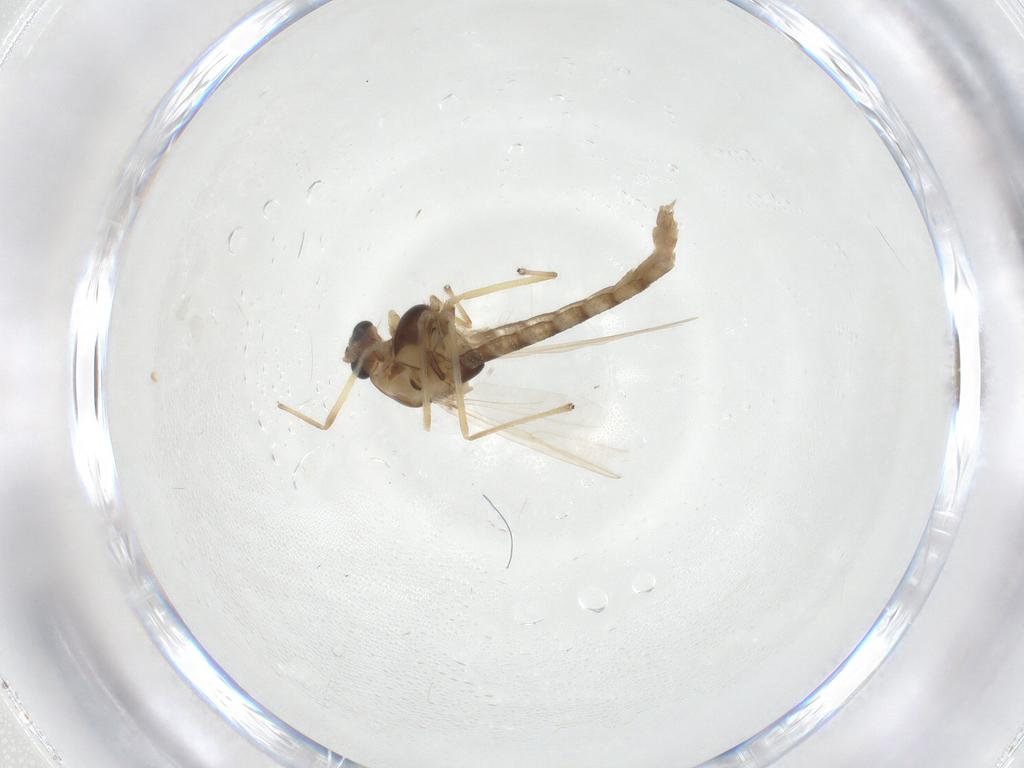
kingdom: Animalia
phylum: Arthropoda
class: Insecta
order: Diptera
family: Chironomidae
